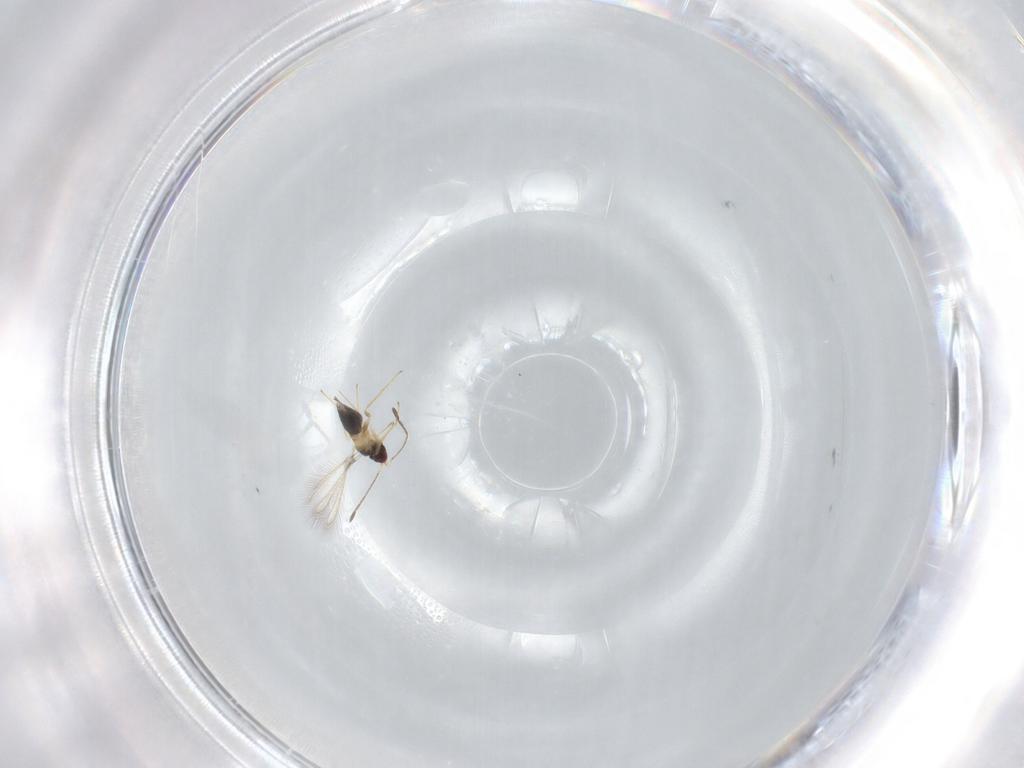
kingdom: Animalia
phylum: Arthropoda
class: Insecta
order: Hymenoptera
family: Mymaridae
